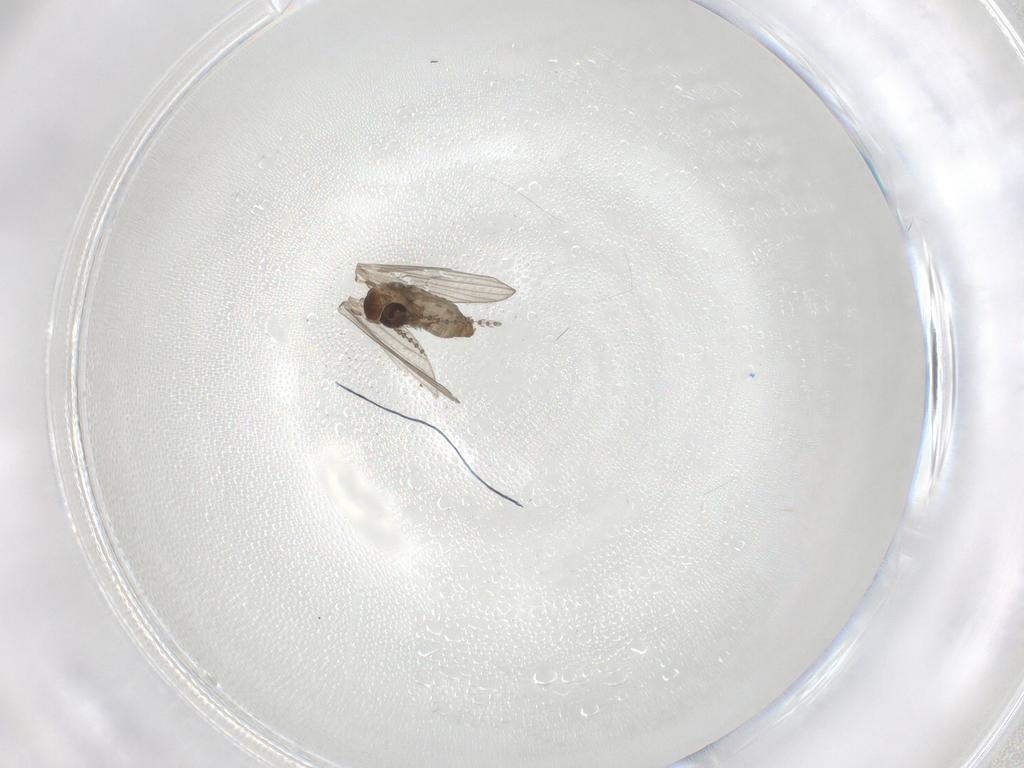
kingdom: Animalia
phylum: Arthropoda
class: Insecta
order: Diptera
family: Psychodidae
